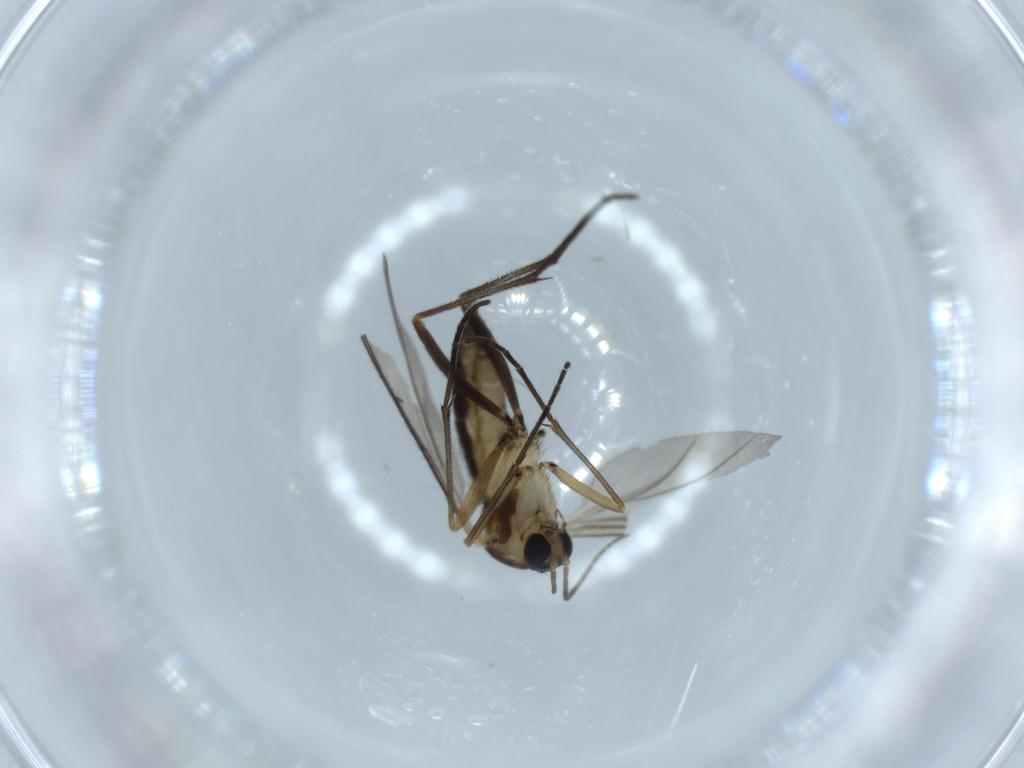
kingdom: Animalia
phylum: Arthropoda
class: Insecta
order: Diptera
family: Sciaridae
